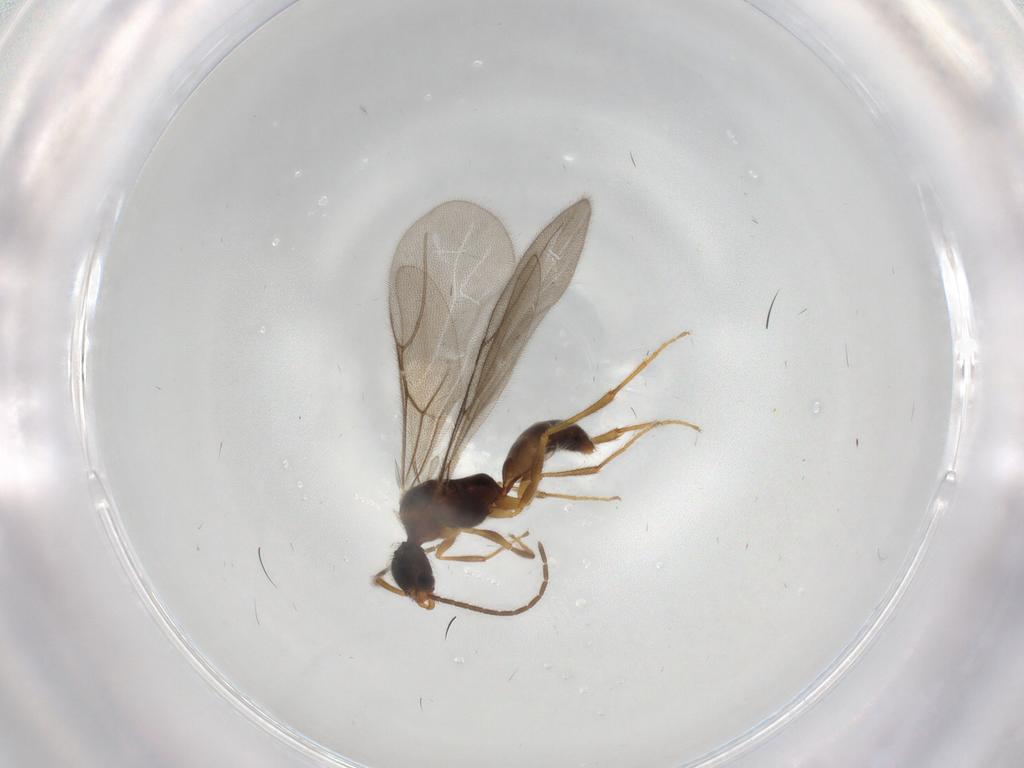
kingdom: Animalia
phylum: Arthropoda
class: Insecta
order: Hymenoptera
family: Bethylidae
